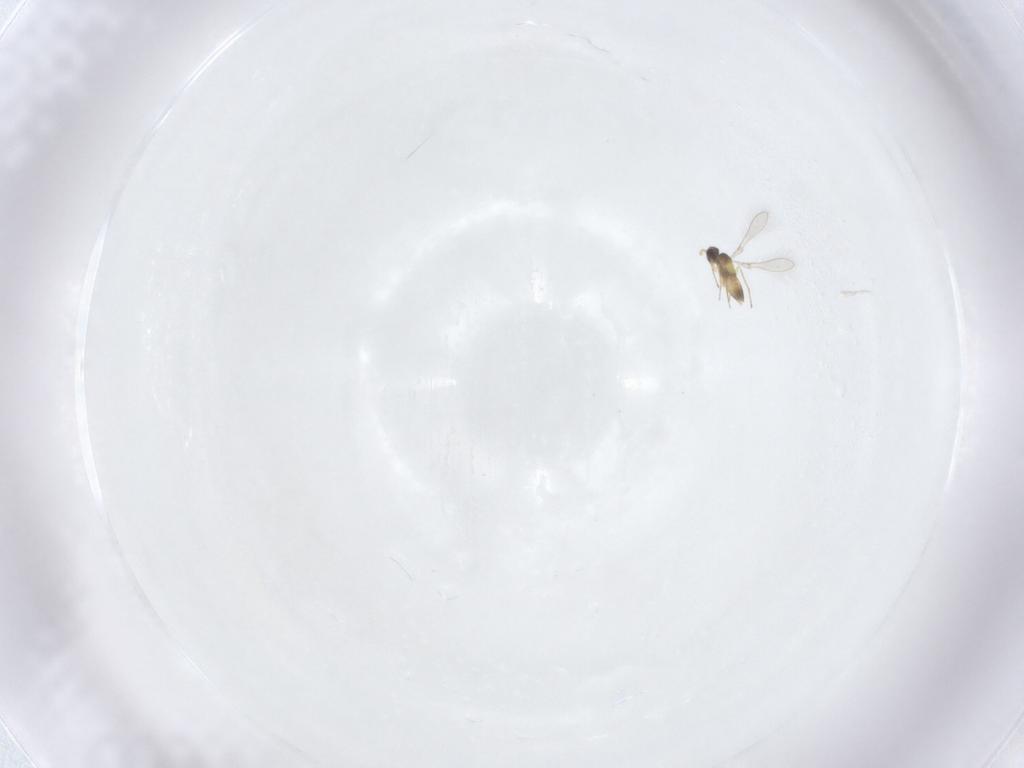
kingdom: Animalia
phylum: Arthropoda
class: Insecta
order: Hymenoptera
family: Mymaridae
